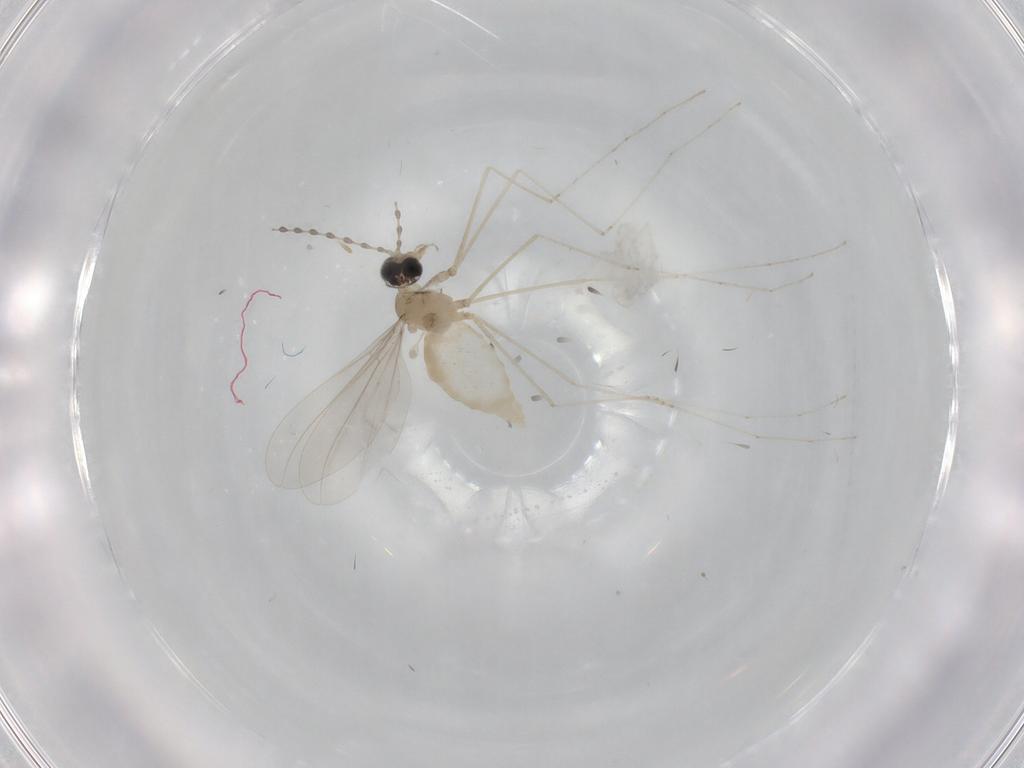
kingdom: Animalia
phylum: Arthropoda
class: Insecta
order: Diptera
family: Cecidomyiidae
